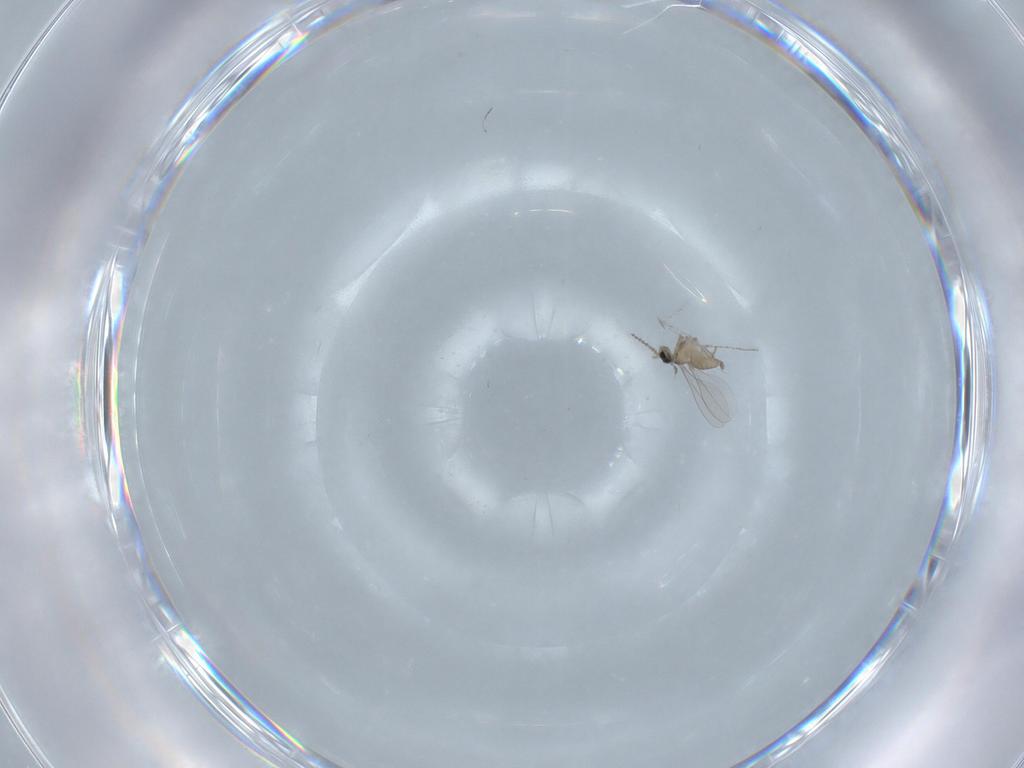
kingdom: Animalia
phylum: Arthropoda
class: Insecta
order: Diptera
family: Cecidomyiidae
